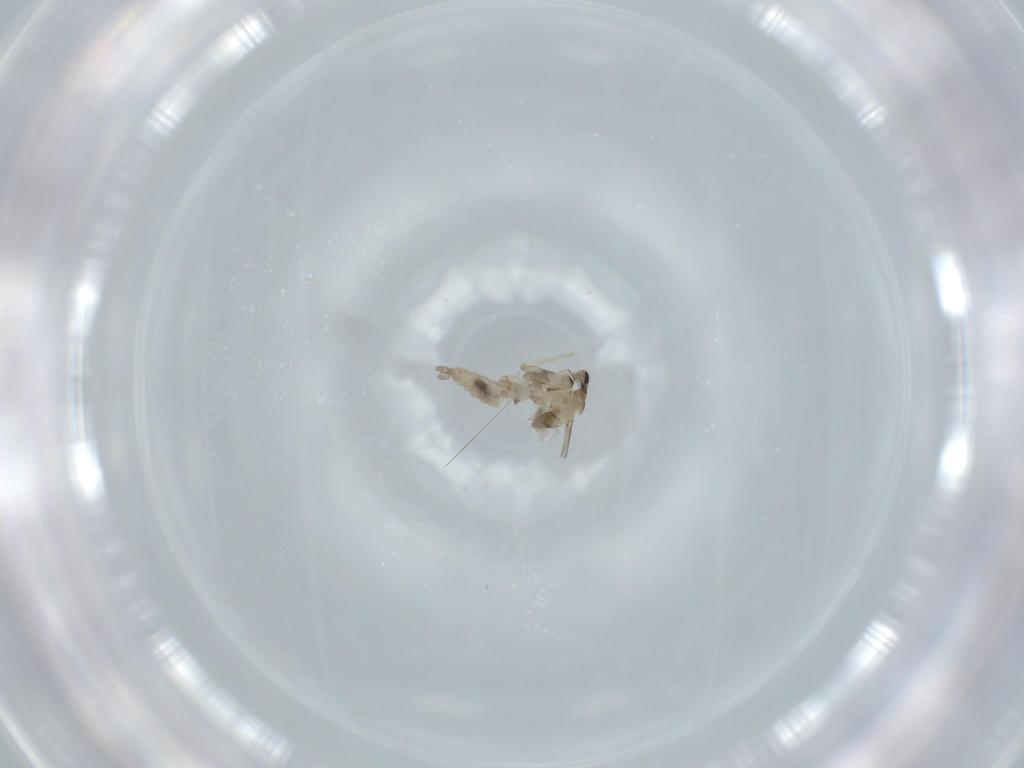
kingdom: Animalia
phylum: Arthropoda
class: Insecta
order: Diptera
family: Cecidomyiidae
